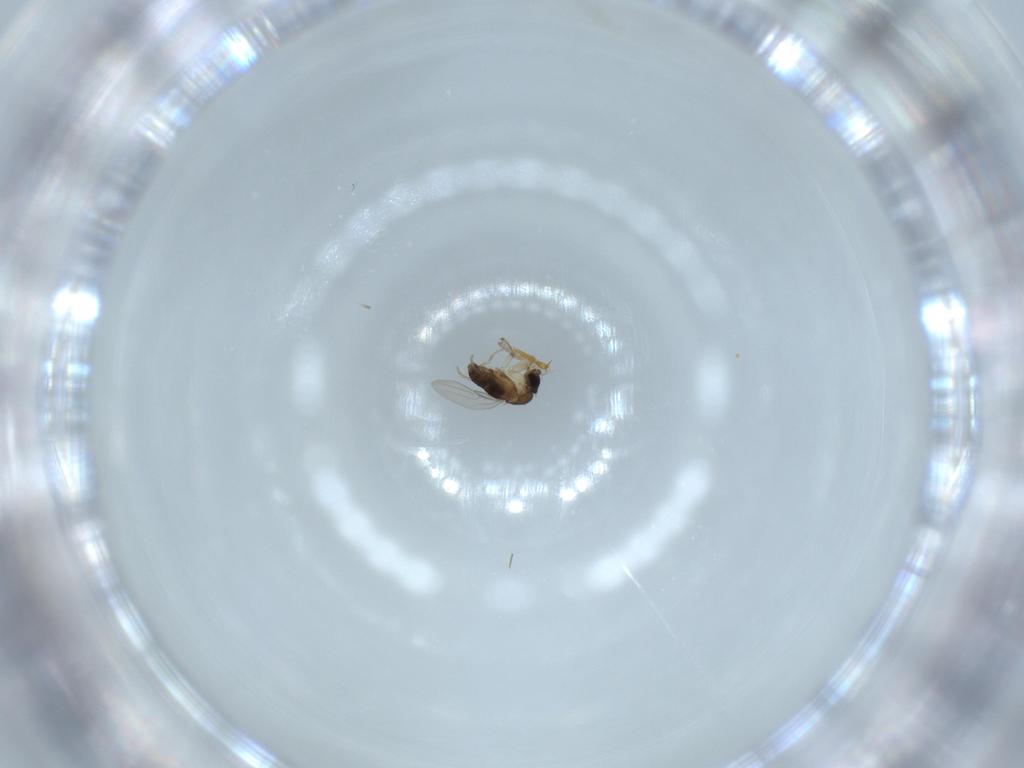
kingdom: Animalia
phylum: Arthropoda
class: Insecta
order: Diptera
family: Phoridae
